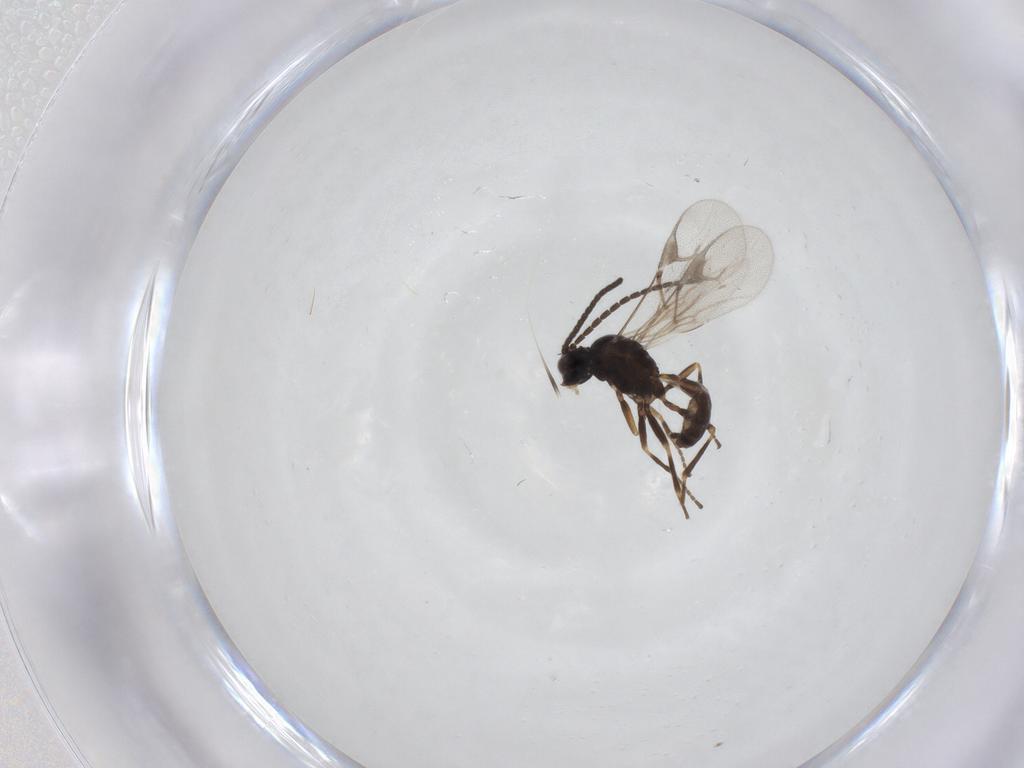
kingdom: Animalia
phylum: Arthropoda
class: Insecta
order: Hymenoptera
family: Braconidae
